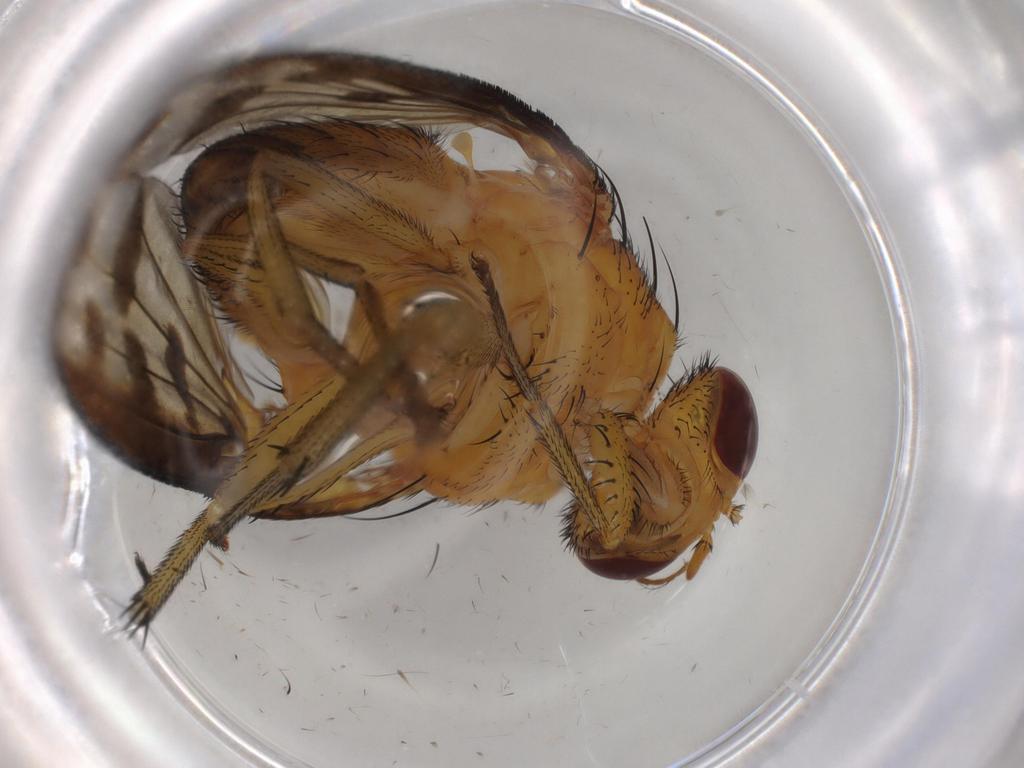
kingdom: Animalia
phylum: Arthropoda
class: Insecta
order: Diptera
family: Ceratopogonidae
